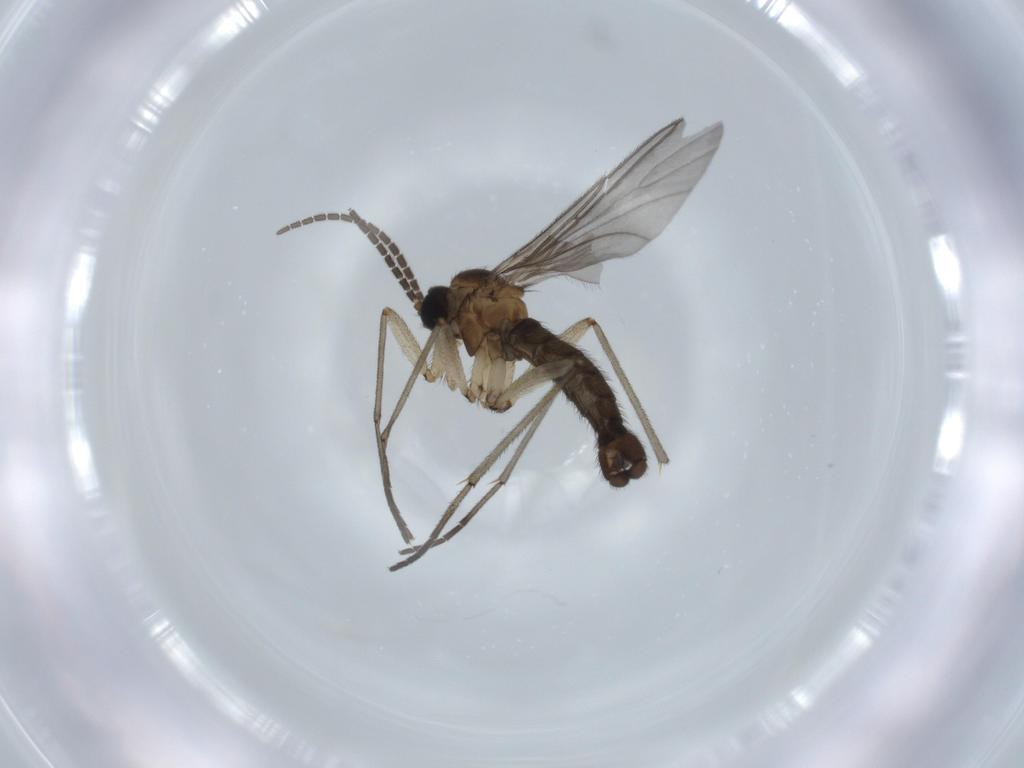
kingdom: Animalia
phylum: Arthropoda
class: Insecta
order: Diptera
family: Sciaridae
